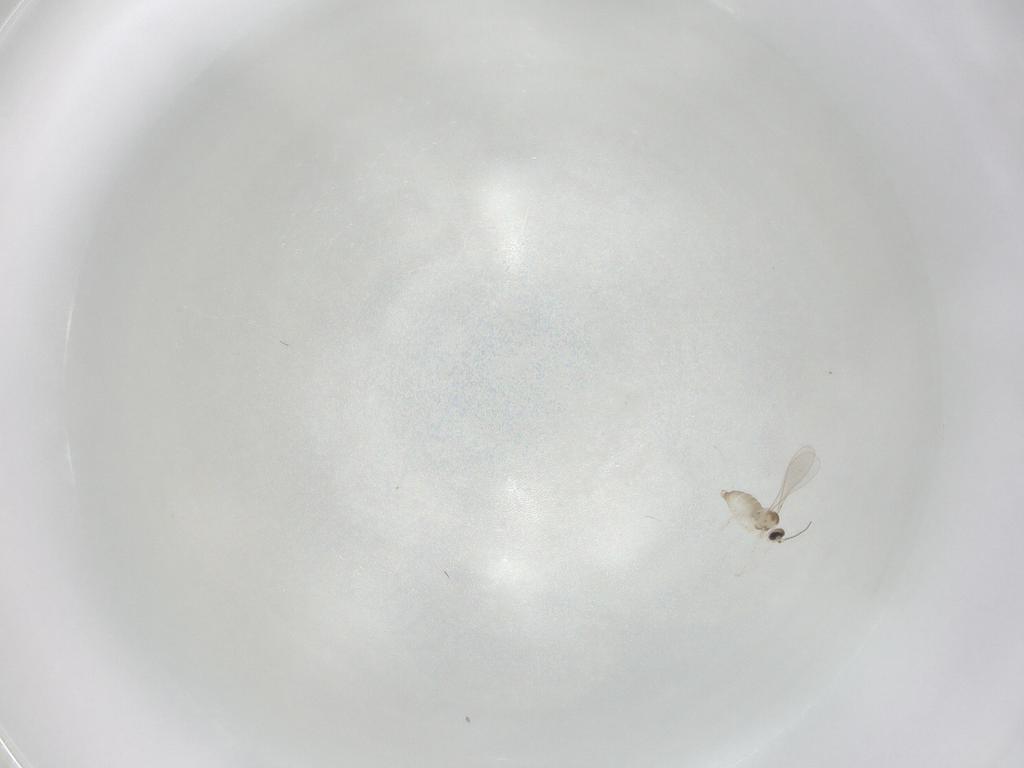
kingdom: Animalia
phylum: Arthropoda
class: Insecta
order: Diptera
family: Cecidomyiidae
